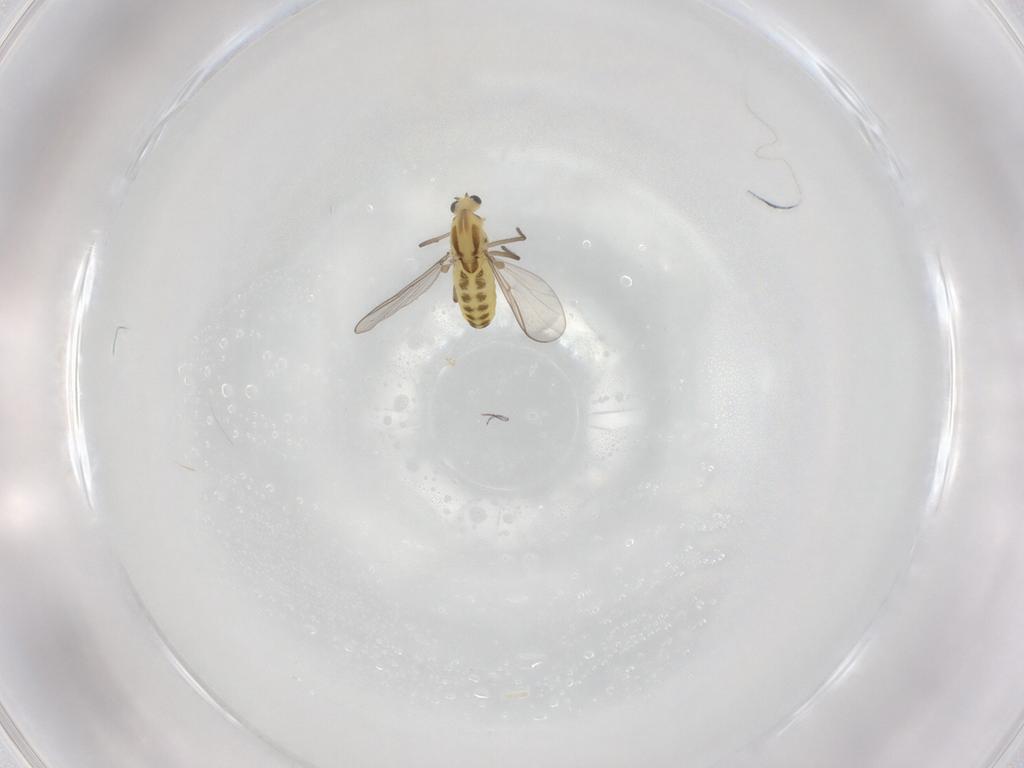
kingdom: Animalia
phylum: Arthropoda
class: Insecta
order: Diptera
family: Chironomidae
